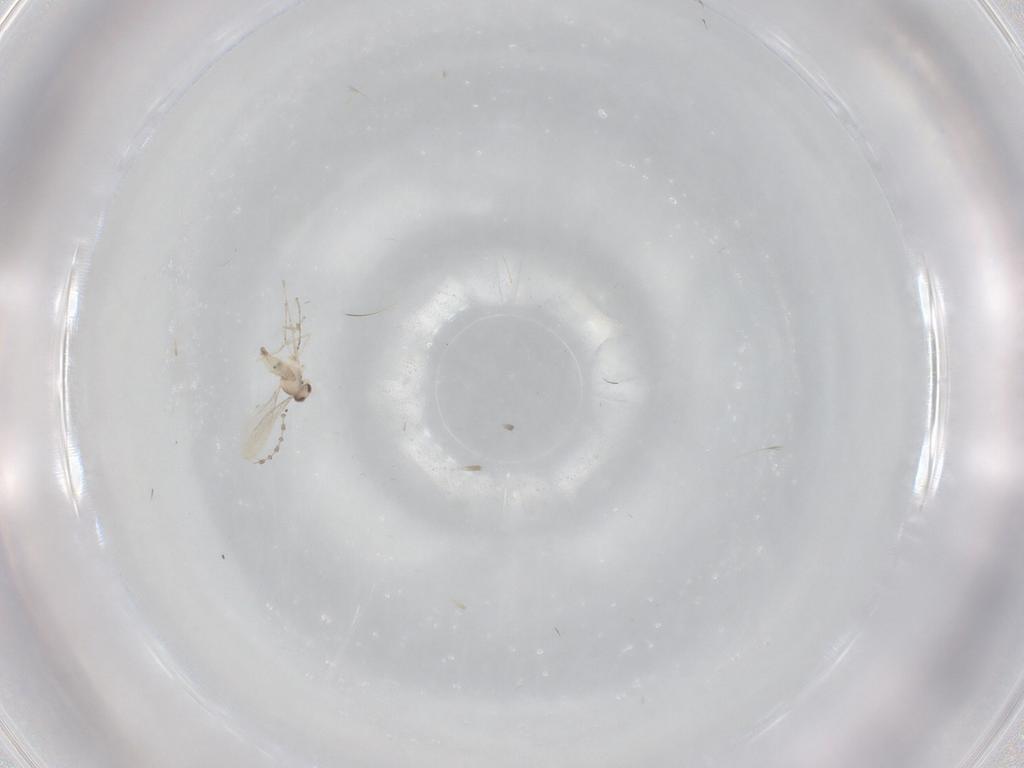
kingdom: Animalia
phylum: Arthropoda
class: Insecta
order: Diptera
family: Cecidomyiidae
